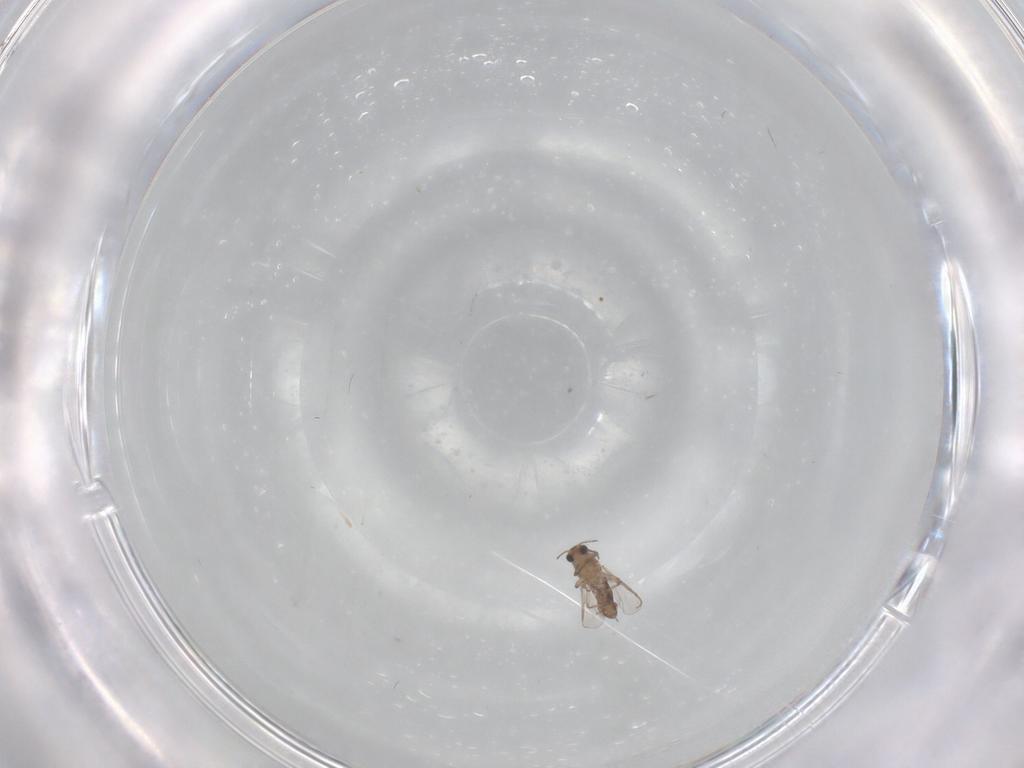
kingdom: Animalia
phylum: Arthropoda
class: Insecta
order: Diptera
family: Chironomidae
